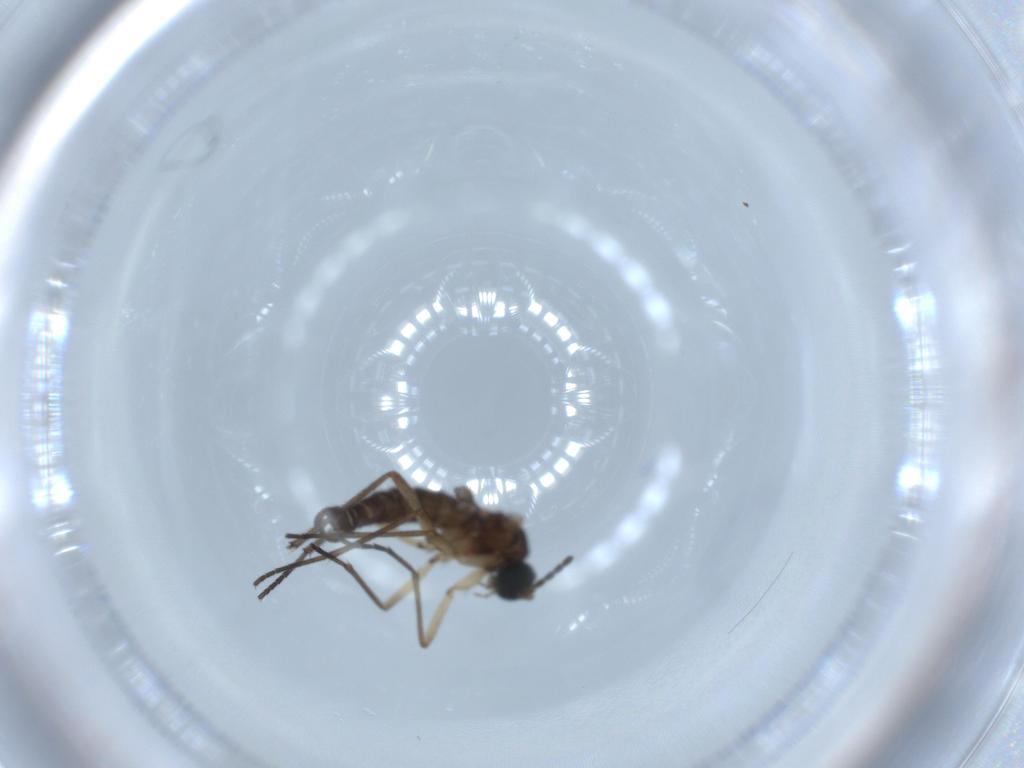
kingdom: Animalia
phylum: Arthropoda
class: Insecta
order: Diptera
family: Sciaridae
